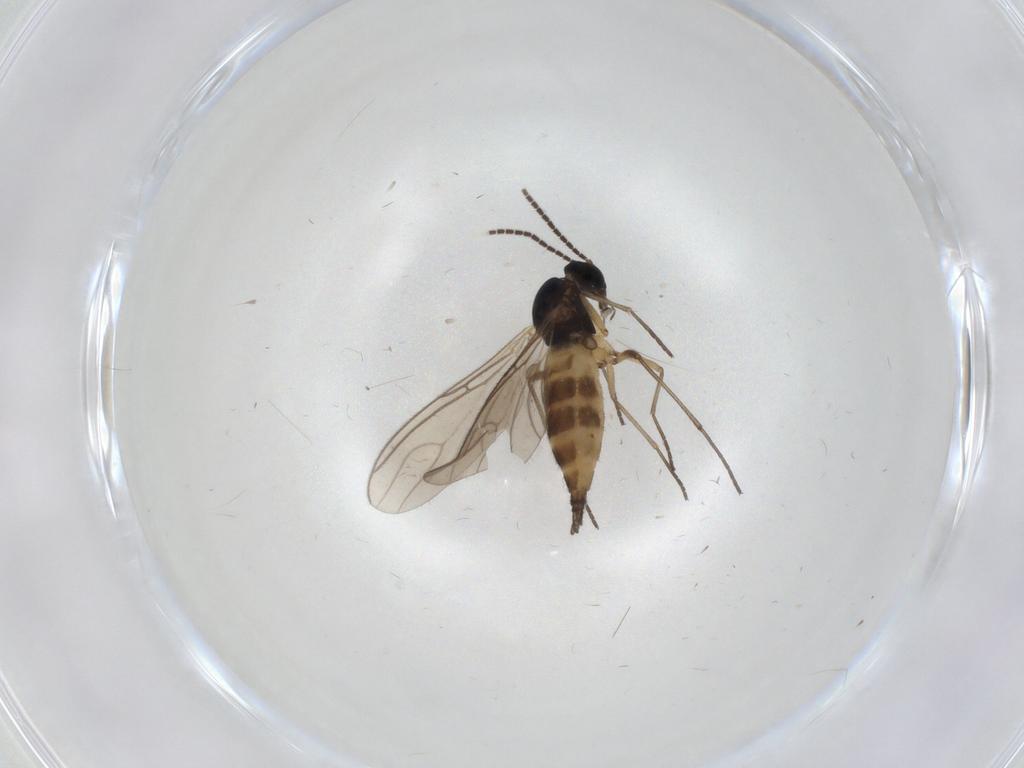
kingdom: Animalia
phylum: Arthropoda
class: Insecta
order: Diptera
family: Sciaridae
